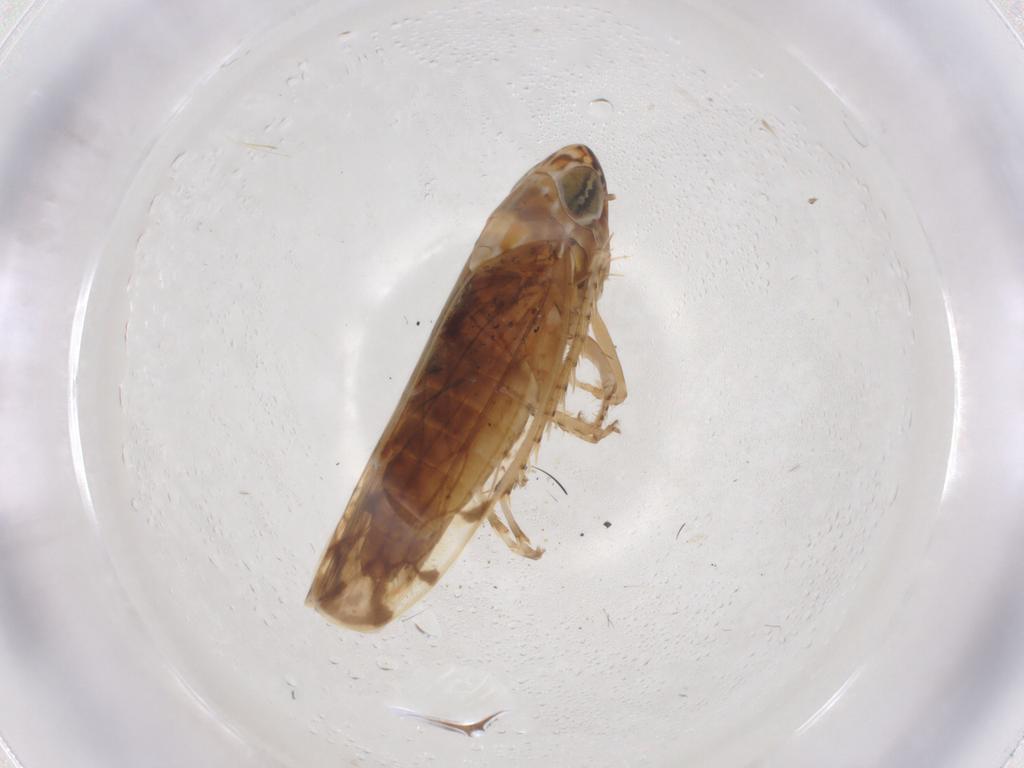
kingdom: Animalia
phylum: Arthropoda
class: Insecta
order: Hemiptera
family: Cicadellidae
